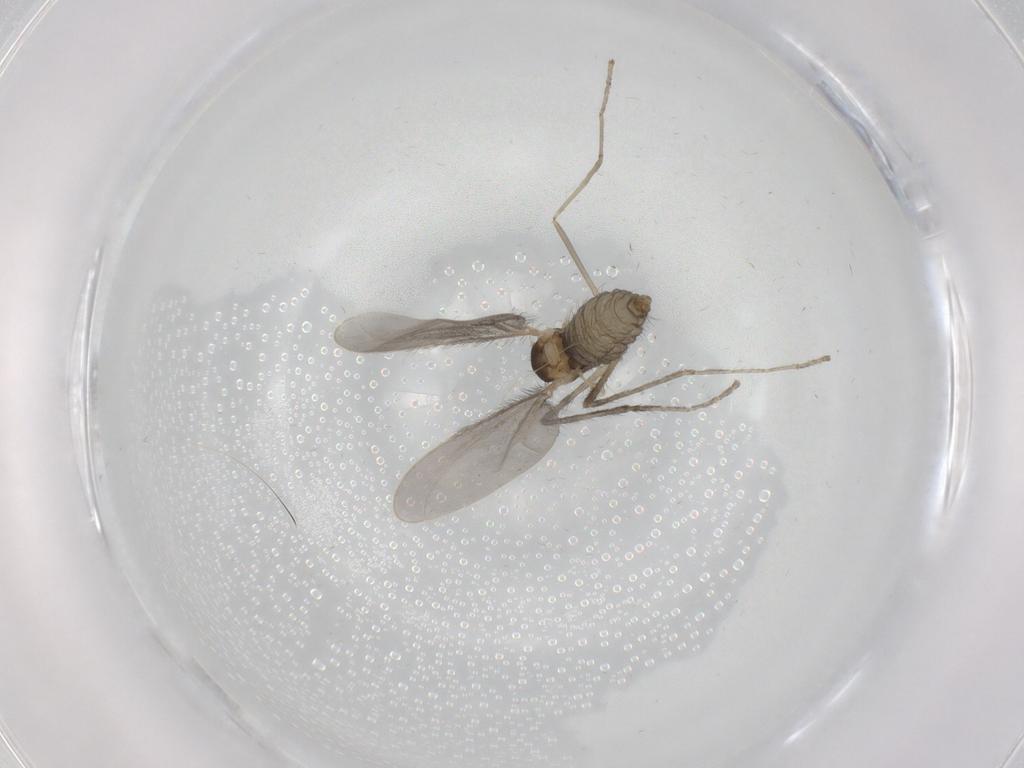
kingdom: Animalia
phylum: Arthropoda
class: Insecta
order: Diptera
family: Cecidomyiidae
